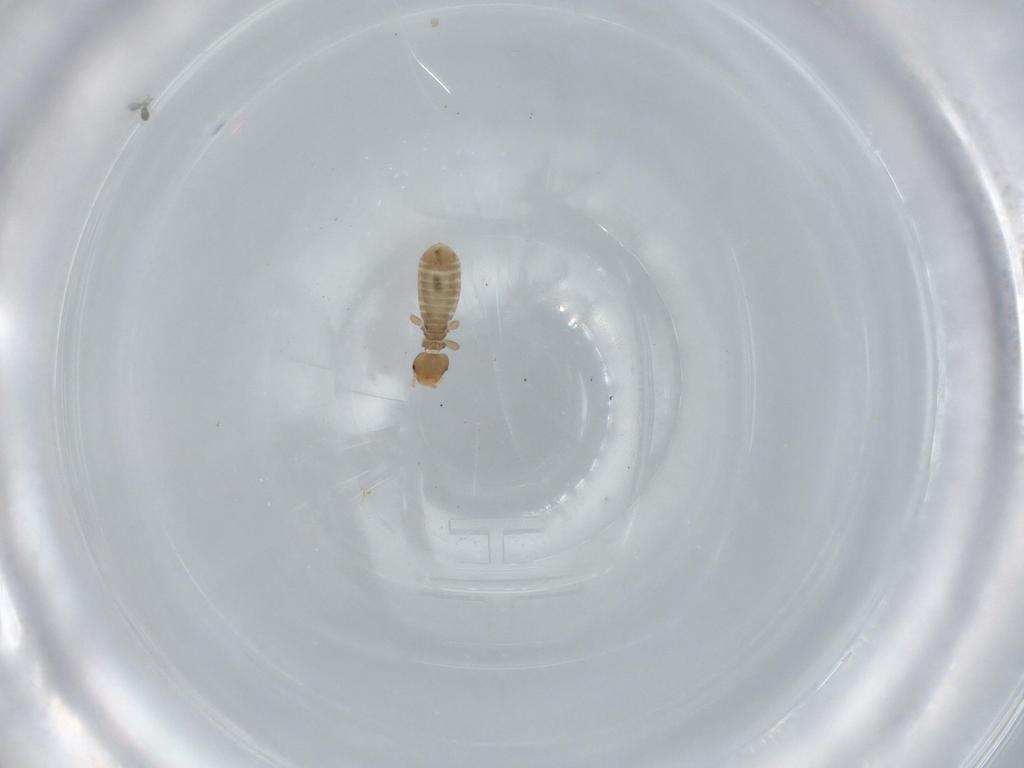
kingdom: Animalia
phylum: Arthropoda
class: Insecta
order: Psocodea
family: Liposcelididae
